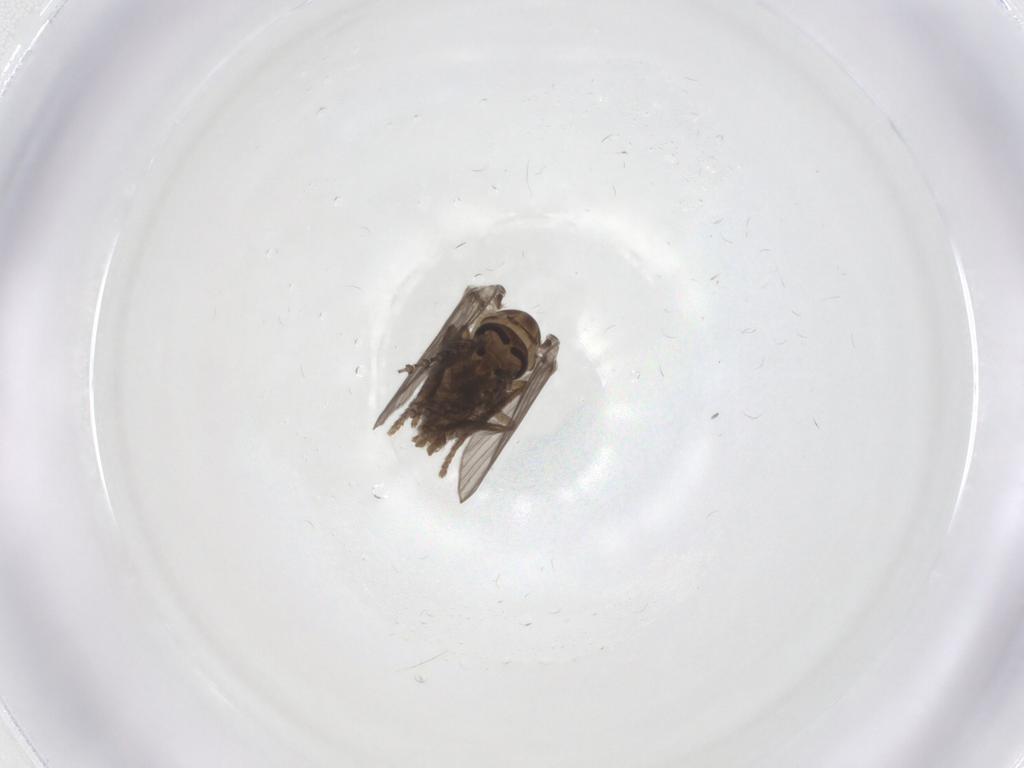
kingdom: Animalia
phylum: Arthropoda
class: Insecta
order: Diptera
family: Psychodidae
